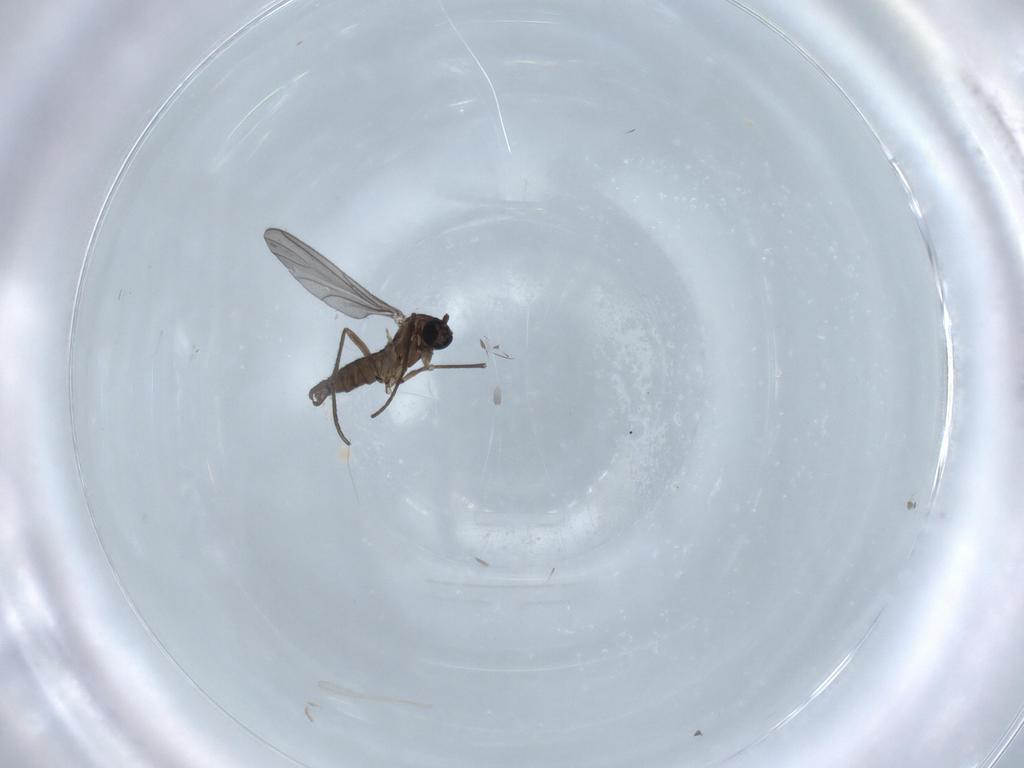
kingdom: Animalia
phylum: Arthropoda
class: Insecta
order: Diptera
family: Sciaridae
